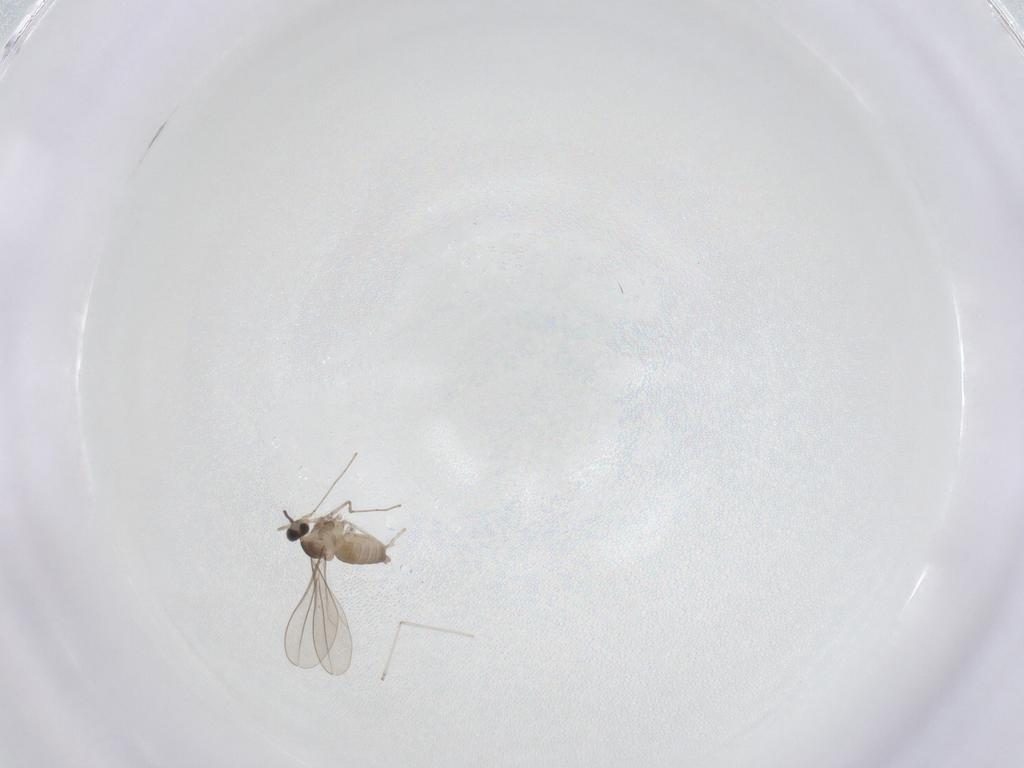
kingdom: Animalia
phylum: Arthropoda
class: Insecta
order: Diptera
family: Cecidomyiidae
